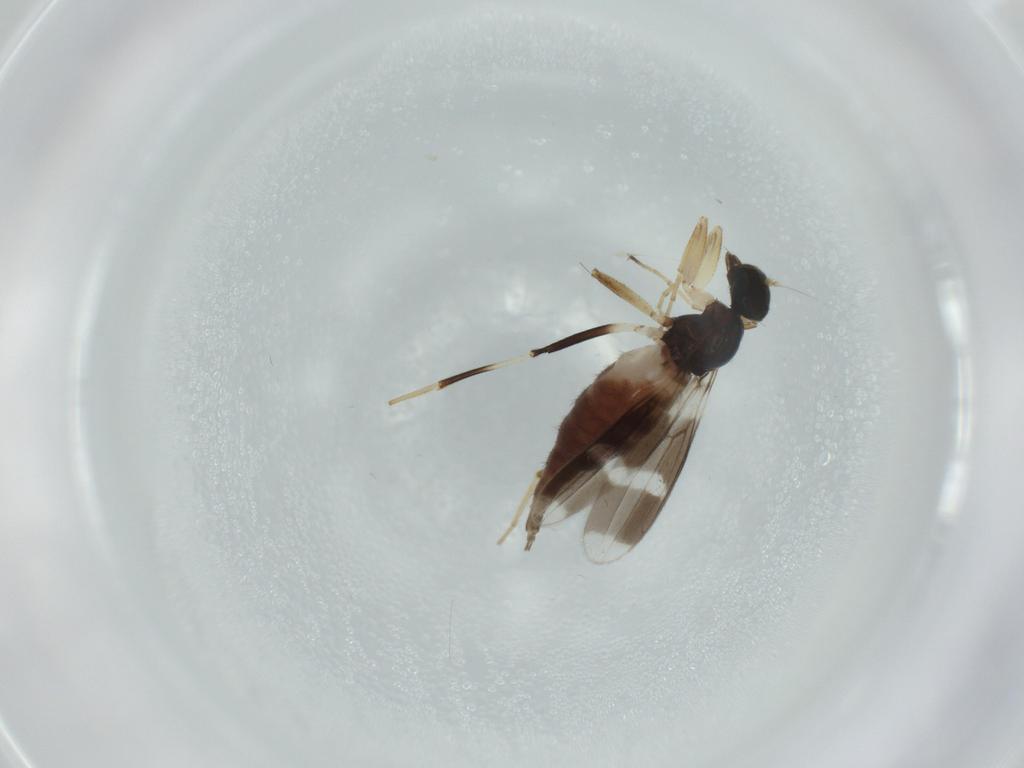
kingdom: Animalia
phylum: Arthropoda
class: Insecta
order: Diptera
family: Hybotidae
